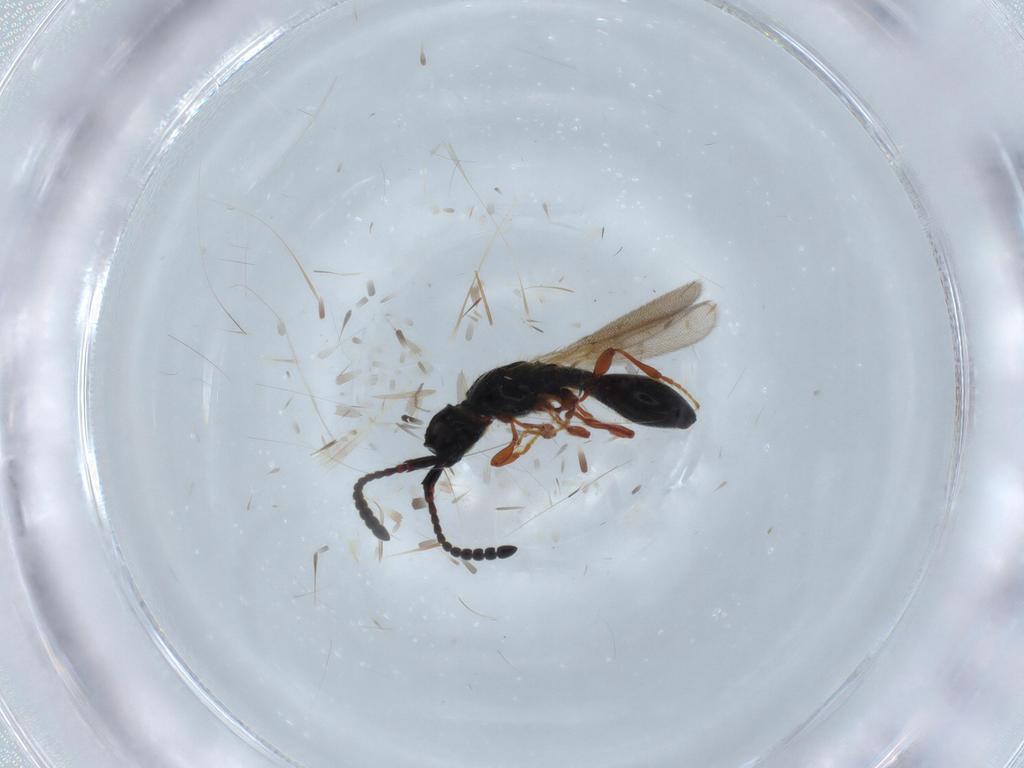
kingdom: Animalia
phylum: Arthropoda
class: Insecta
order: Hymenoptera
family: Diapriidae
